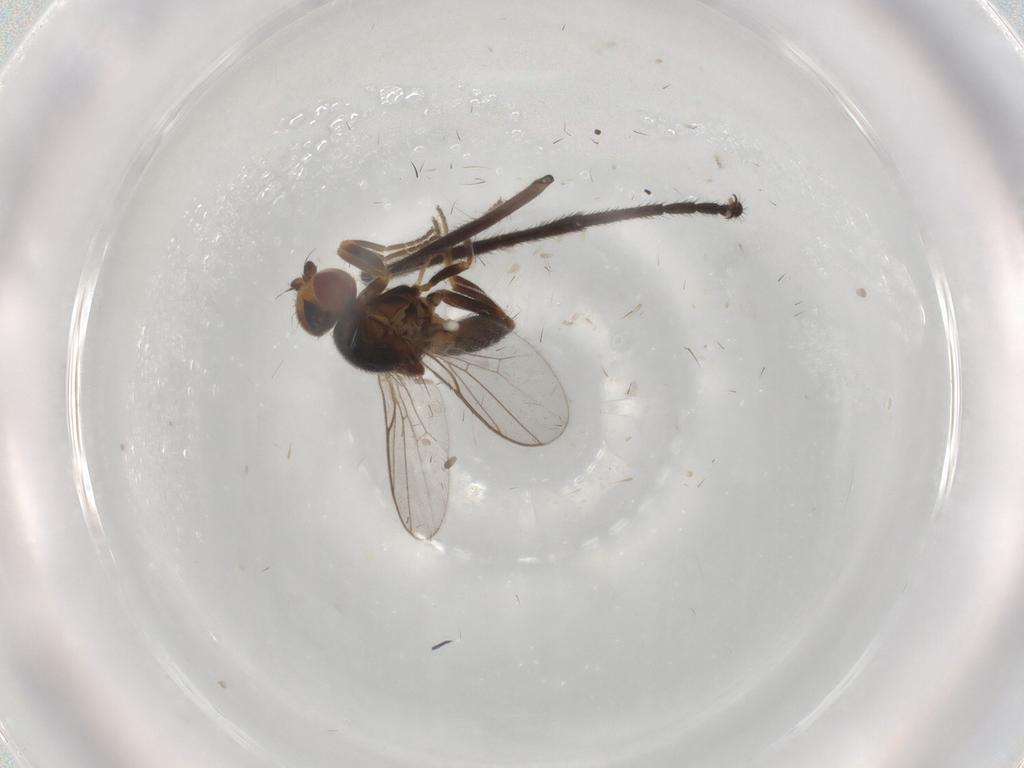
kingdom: Animalia
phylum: Arthropoda
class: Insecta
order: Diptera
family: Chloropidae
